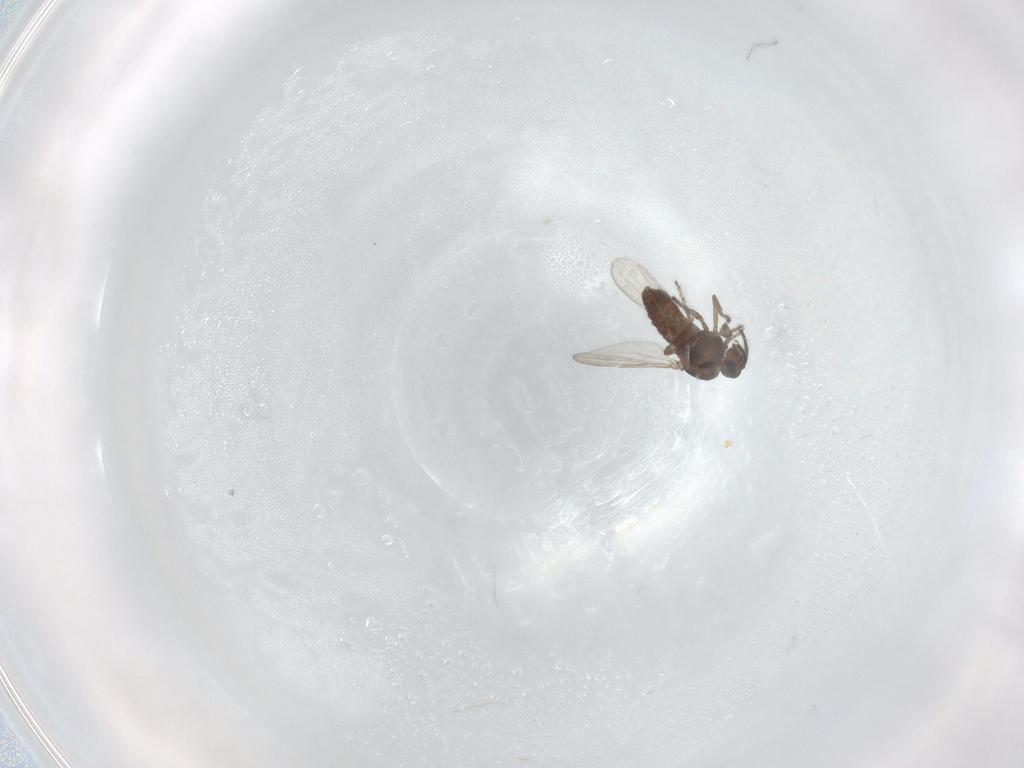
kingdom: Animalia
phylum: Arthropoda
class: Insecta
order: Diptera
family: Ceratopogonidae
